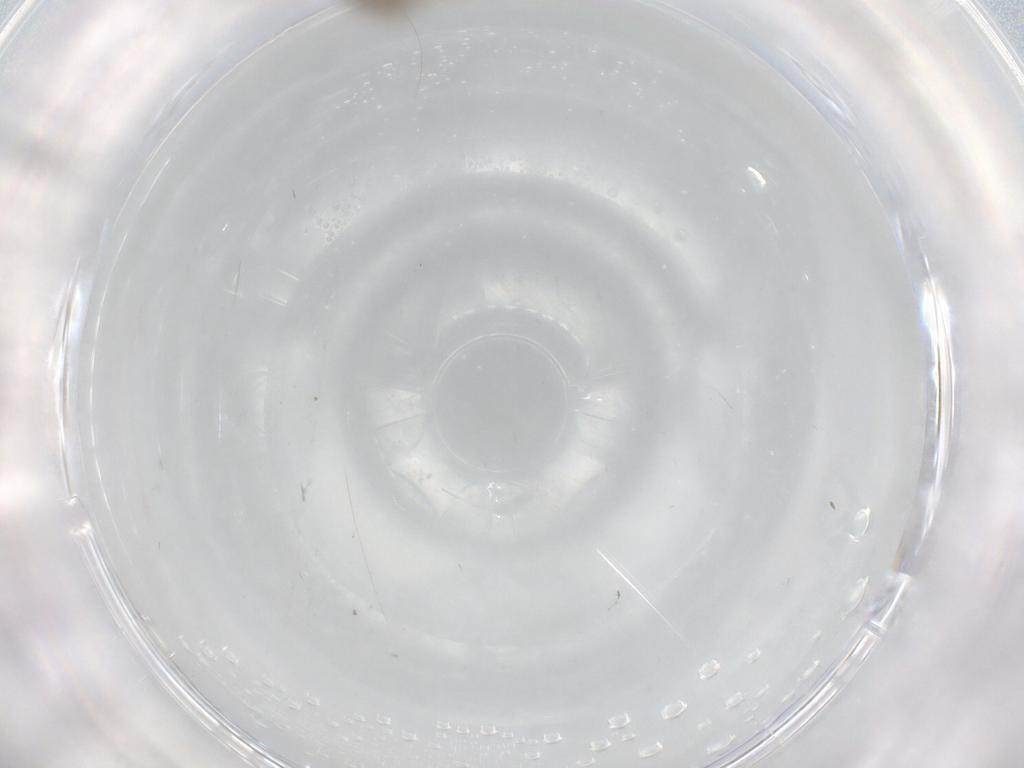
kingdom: Animalia
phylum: Arthropoda
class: Insecta
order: Diptera
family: Cecidomyiidae
